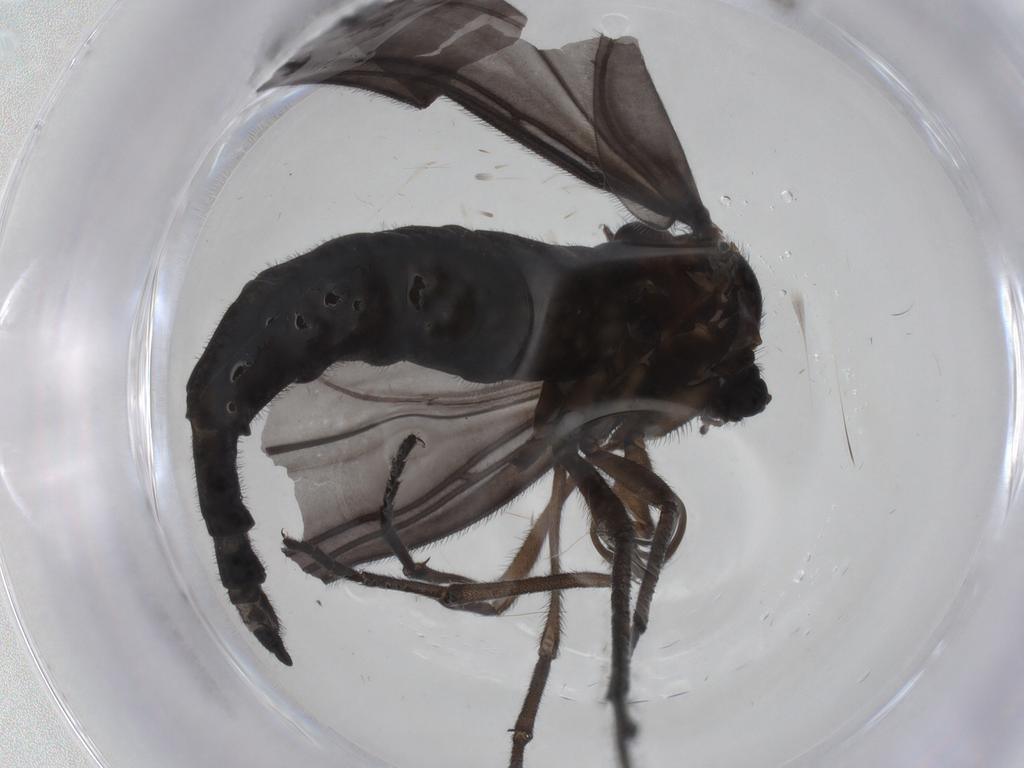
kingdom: Animalia
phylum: Arthropoda
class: Insecta
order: Diptera
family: Sciaridae
